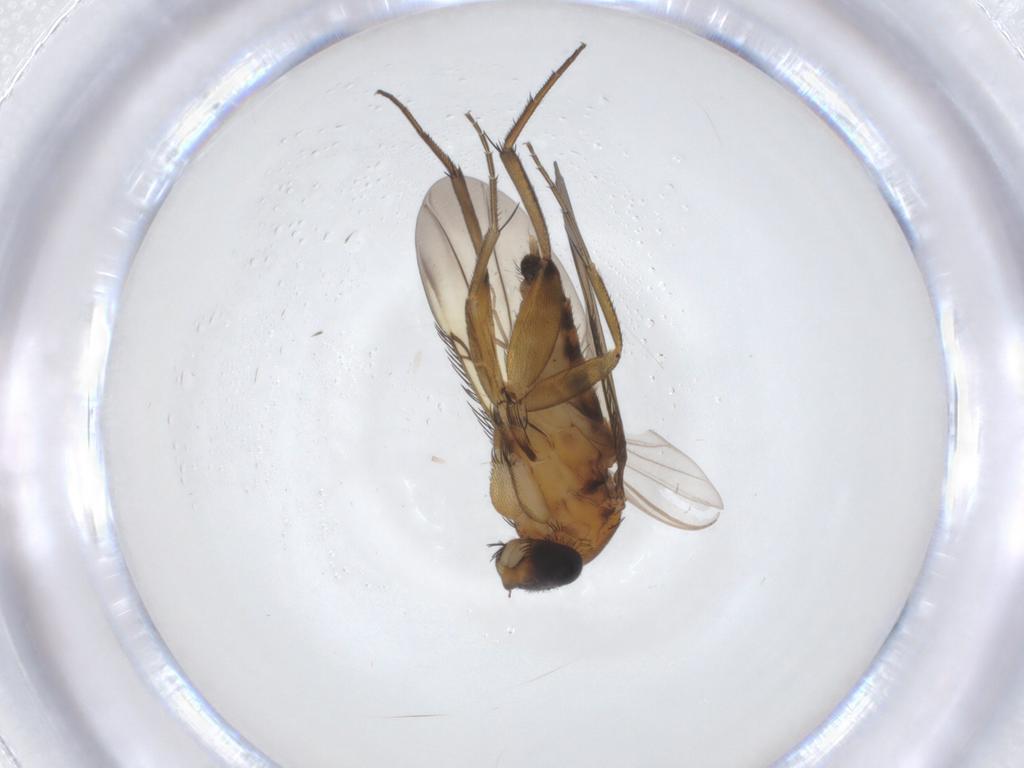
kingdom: Animalia
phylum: Arthropoda
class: Insecta
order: Diptera
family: Phoridae
